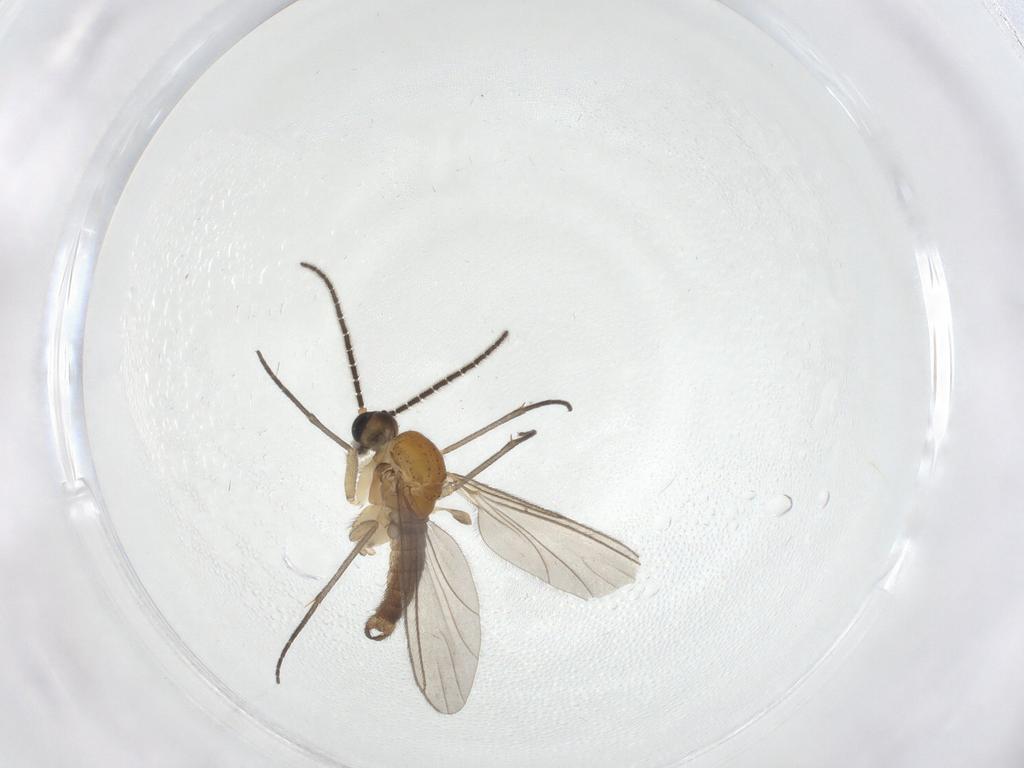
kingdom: Animalia
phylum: Arthropoda
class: Insecta
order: Diptera
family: Sciaridae
